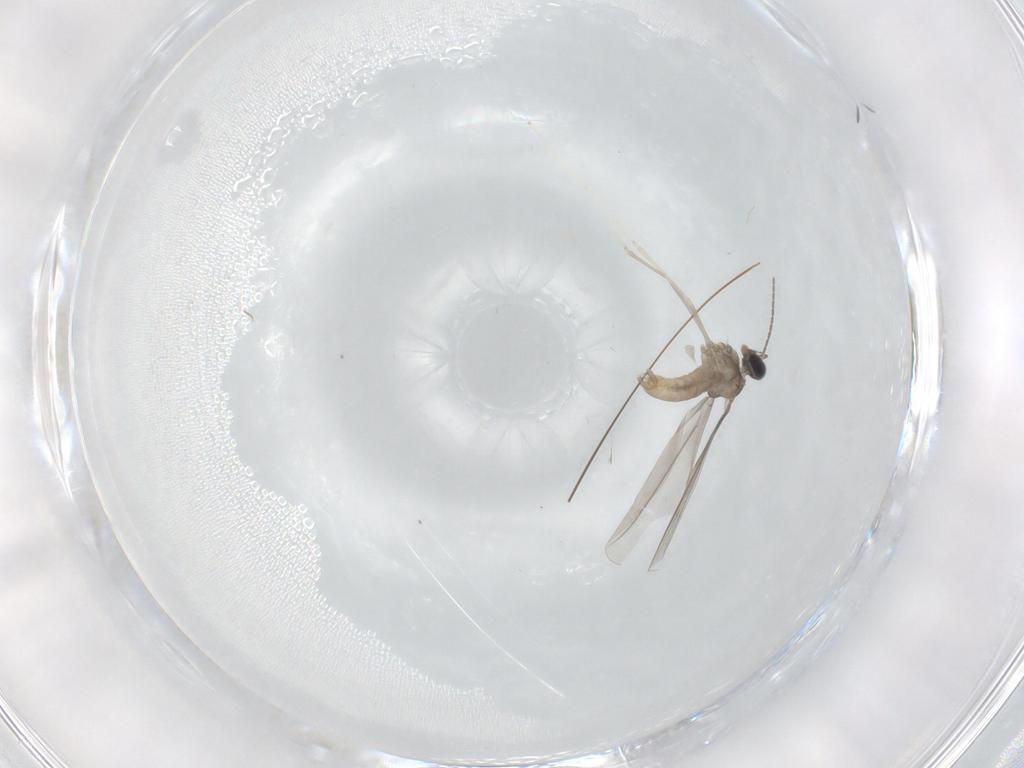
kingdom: Animalia
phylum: Arthropoda
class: Insecta
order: Diptera
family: Cecidomyiidae
